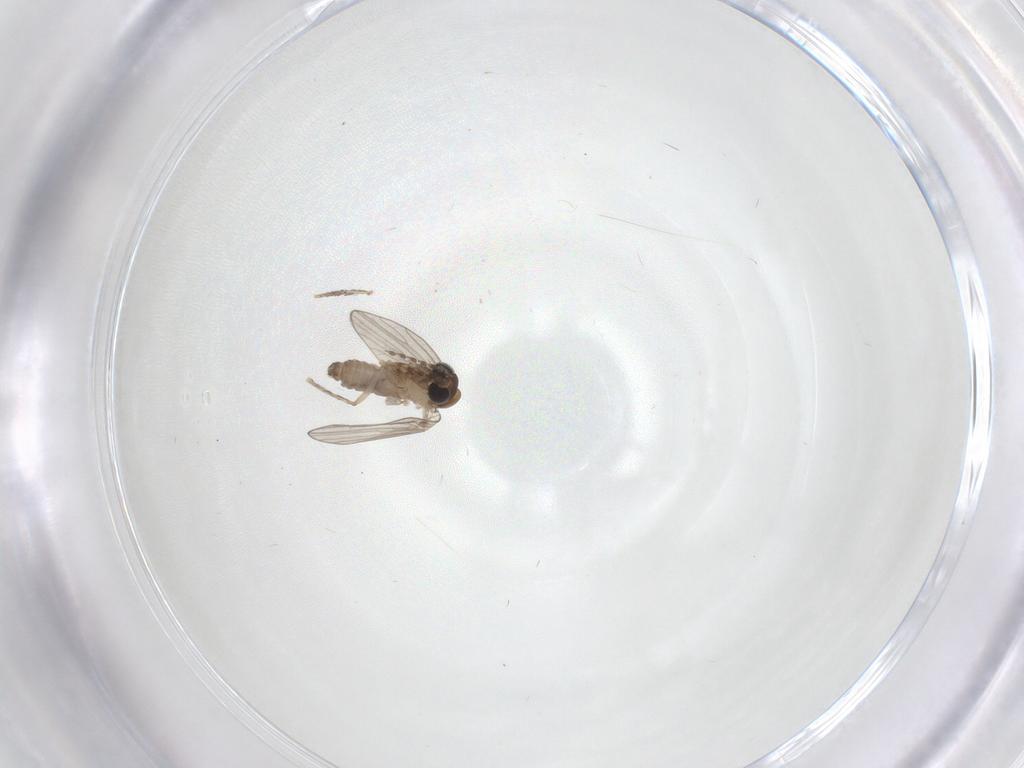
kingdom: Animalia
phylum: Arthropoda
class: Insecta
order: Diptera
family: Psychodidae
